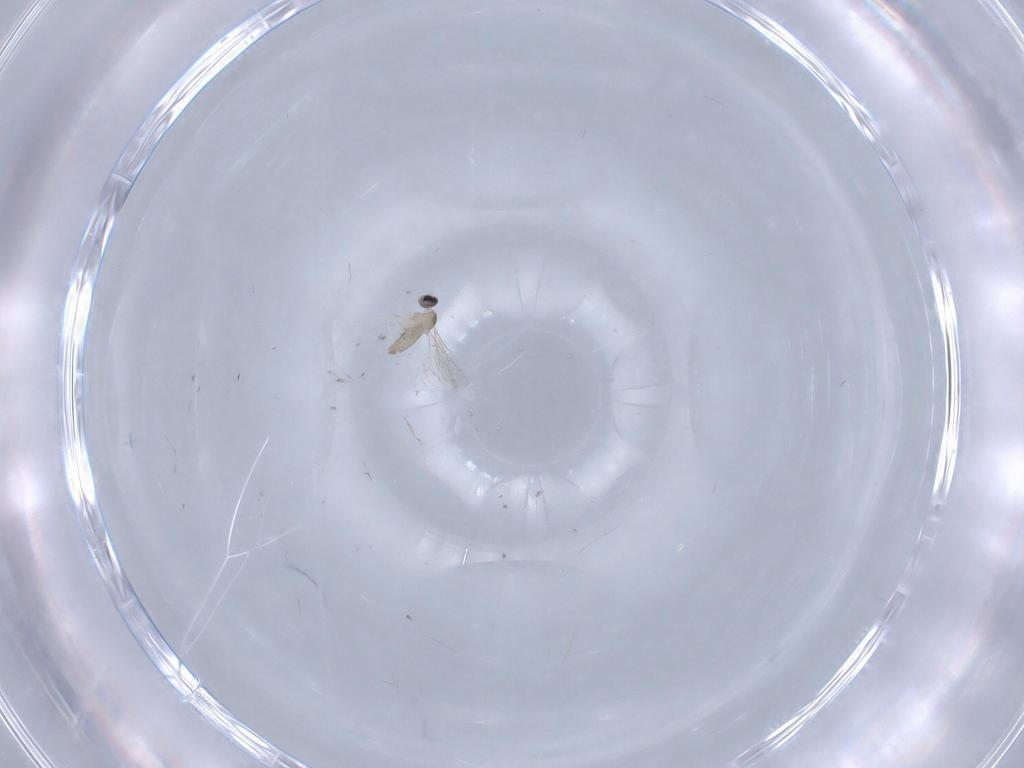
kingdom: Animalia
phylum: Arthropoda
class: Insecta
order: Diptera
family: Cecidomyiidae
